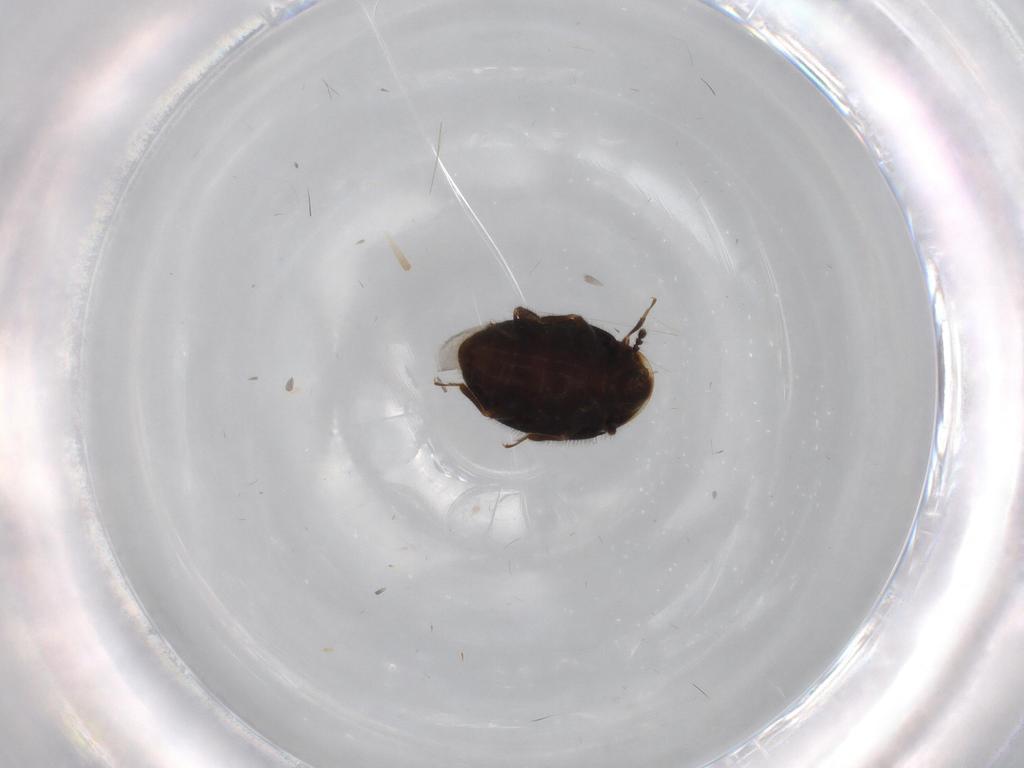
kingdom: Animalia
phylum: Arthropoda
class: Insecta
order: Coleoptera
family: Corylophidae
